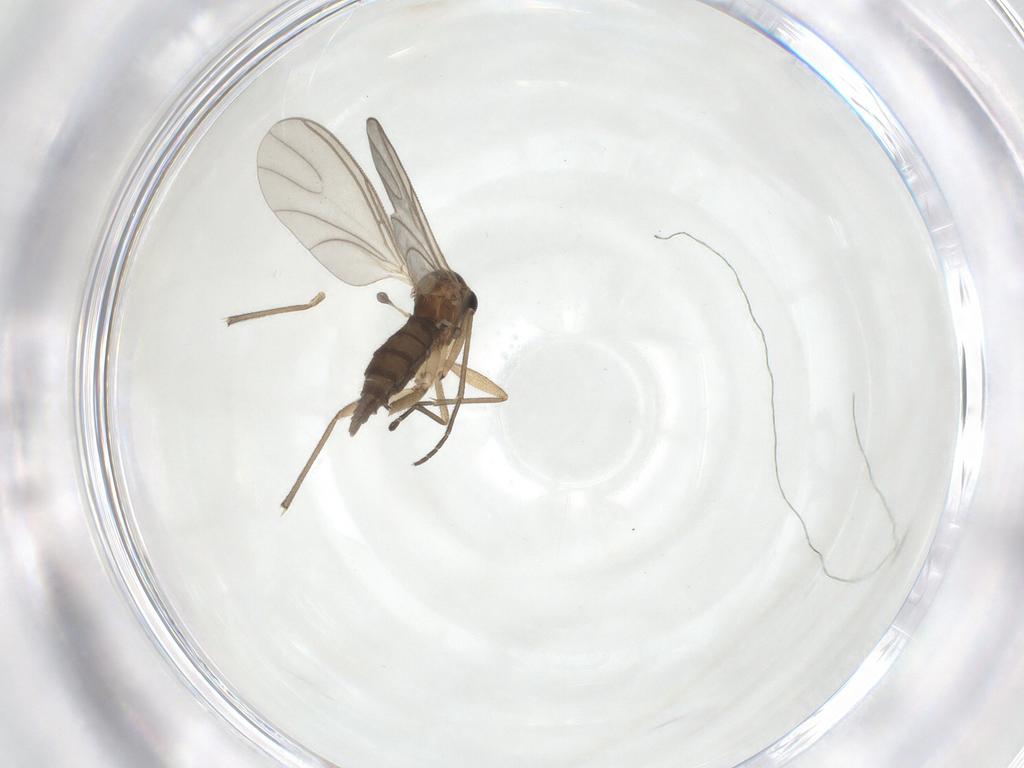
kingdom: Animalia
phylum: Arthropoda
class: Insecta
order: Diptera
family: Sciaridae
